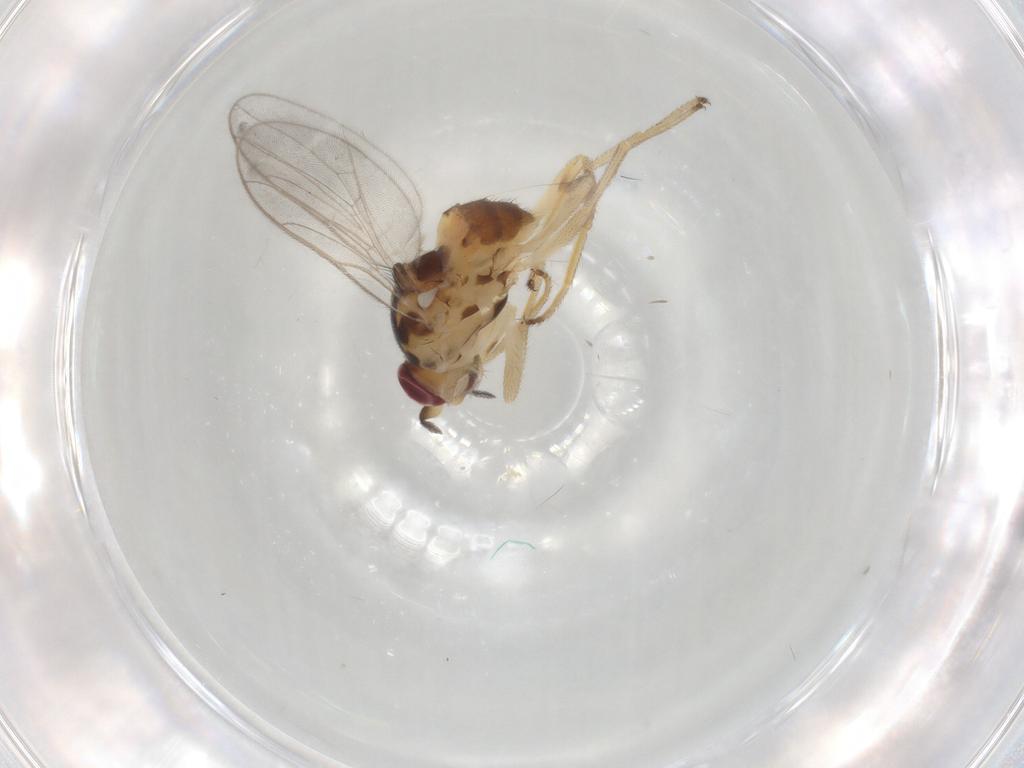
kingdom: Animalia
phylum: Arthropoda
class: Insecta
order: Diptera
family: Chloropidae
